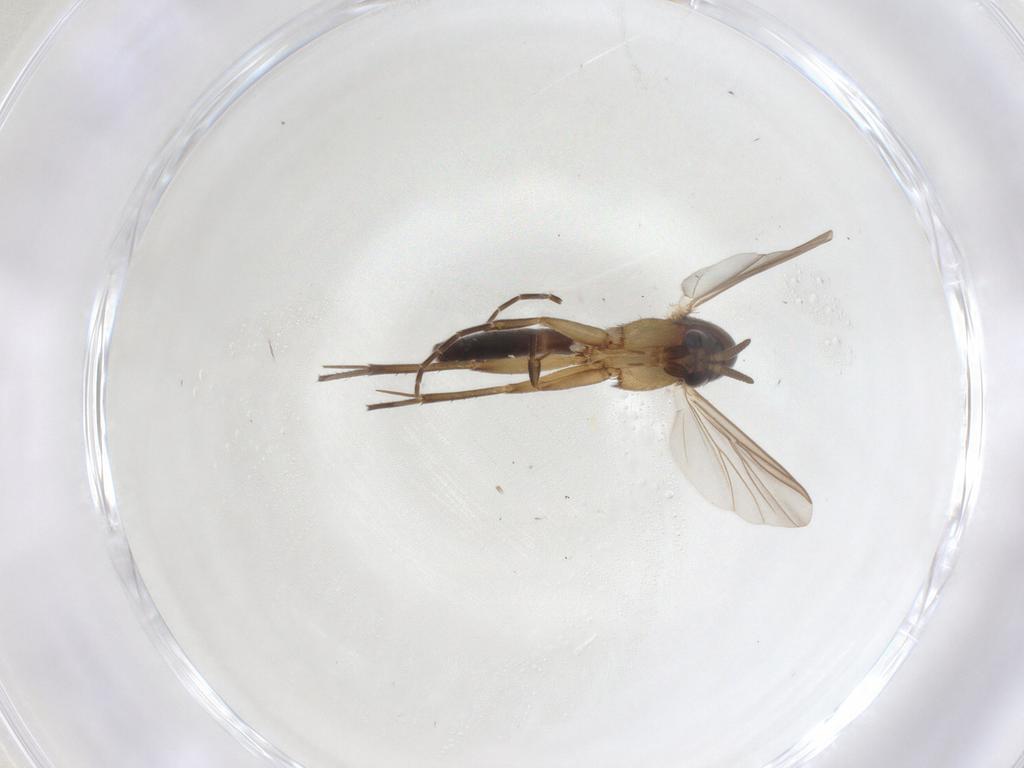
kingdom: Animalia
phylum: Arthropoda
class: Insecta
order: Diptera
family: Mycetophilidae
